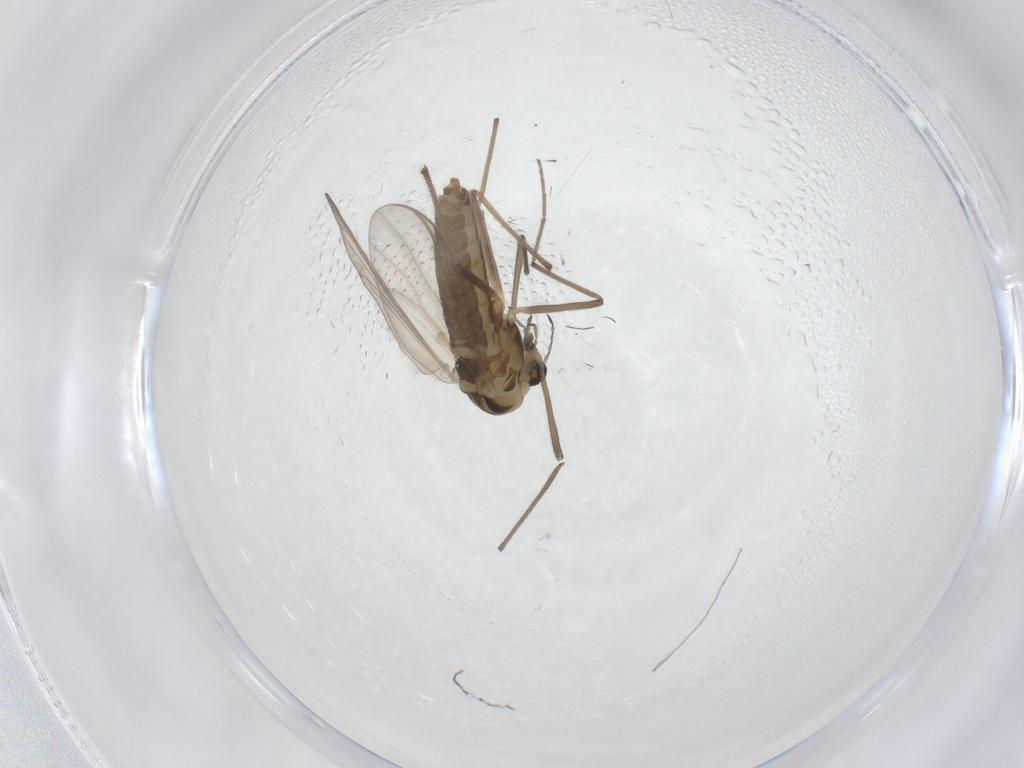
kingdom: Animalia
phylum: Arthropoda
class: Insecta
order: Diptera
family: Chironomidae
